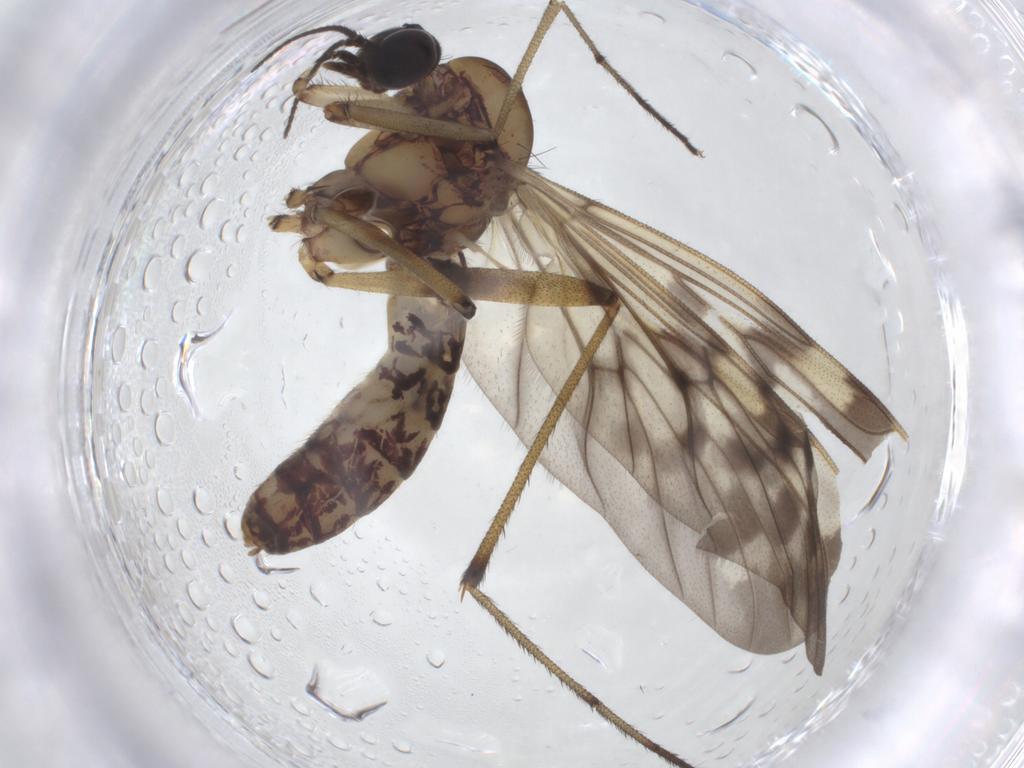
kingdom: Animalia
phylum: Arthropoda
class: Insecta
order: Diptera
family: Ceratopogonidae
